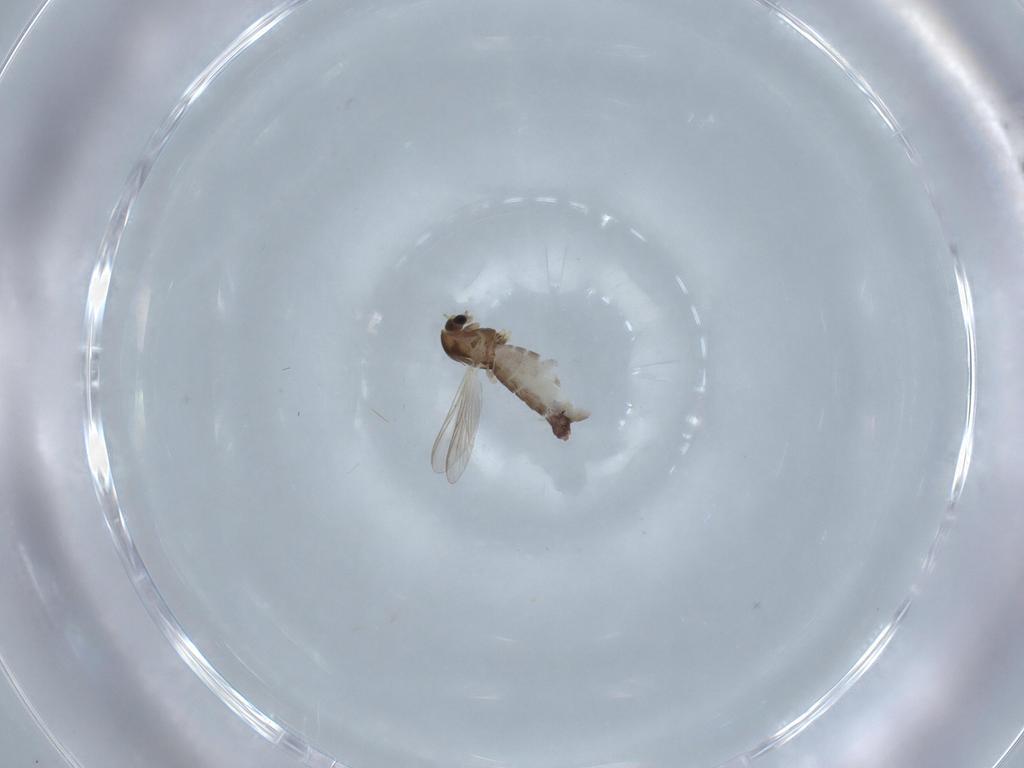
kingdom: Animalia
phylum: Arthropoda
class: Insecta
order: Diptera
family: Chironomidae
